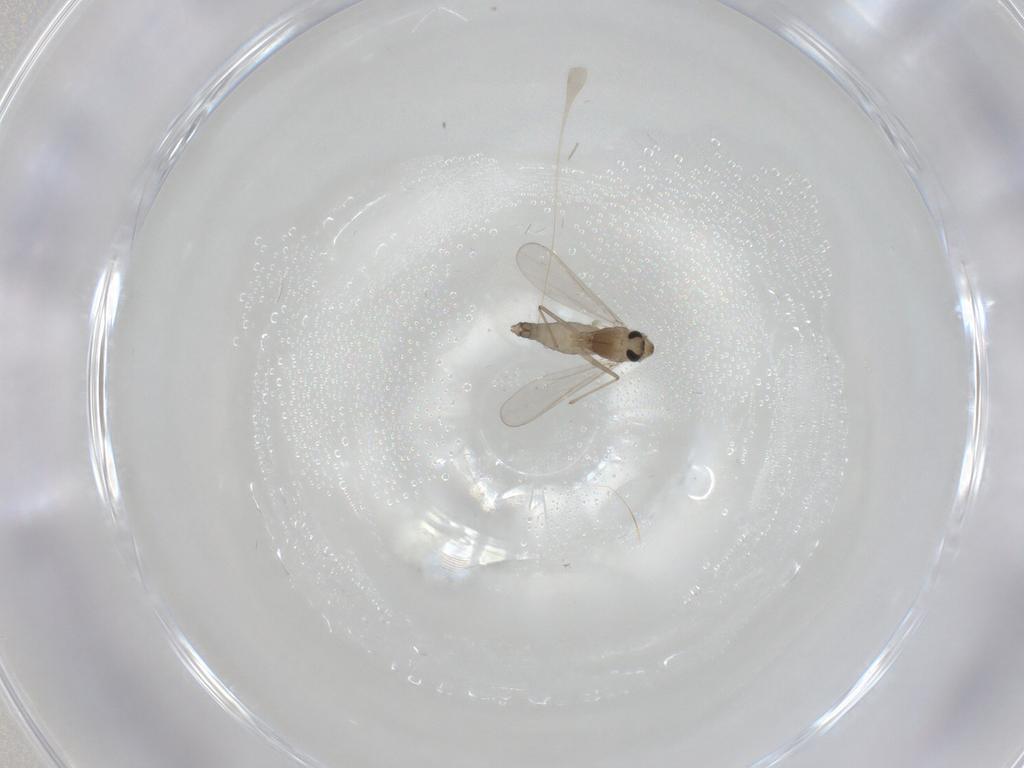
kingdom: Animalia
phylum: Arthropoda
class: Insecta
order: Diptera
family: Chironomidae
